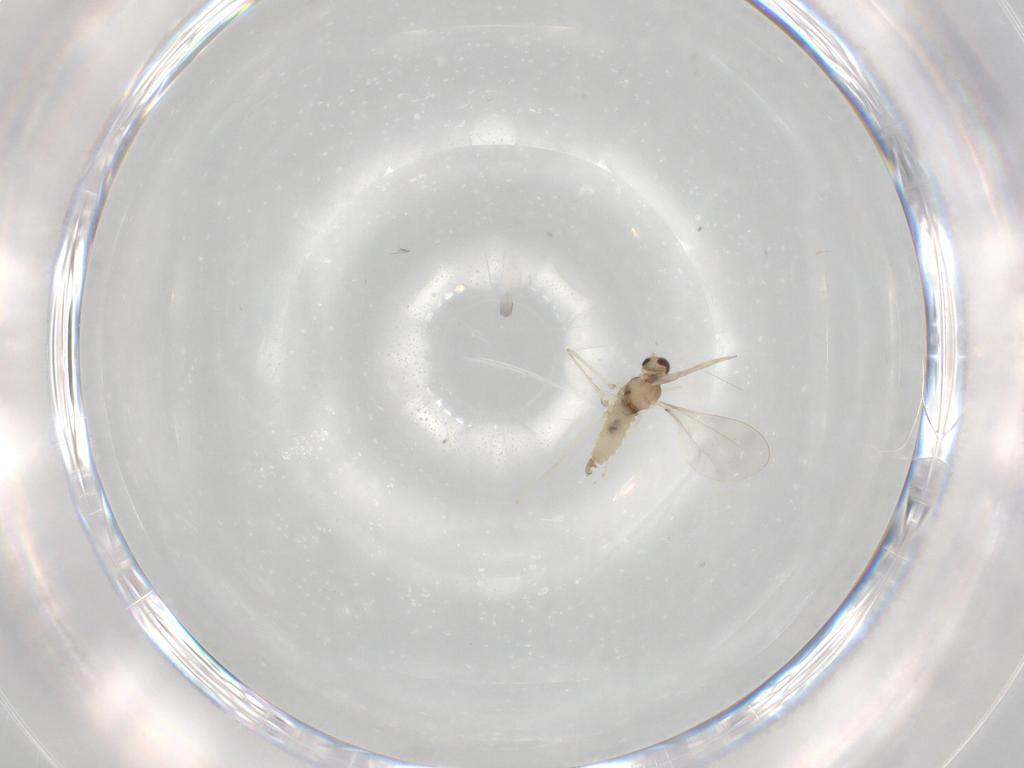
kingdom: Animalia
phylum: Arthropoda
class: Insecta
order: Diptera
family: Cecidomyiidae
